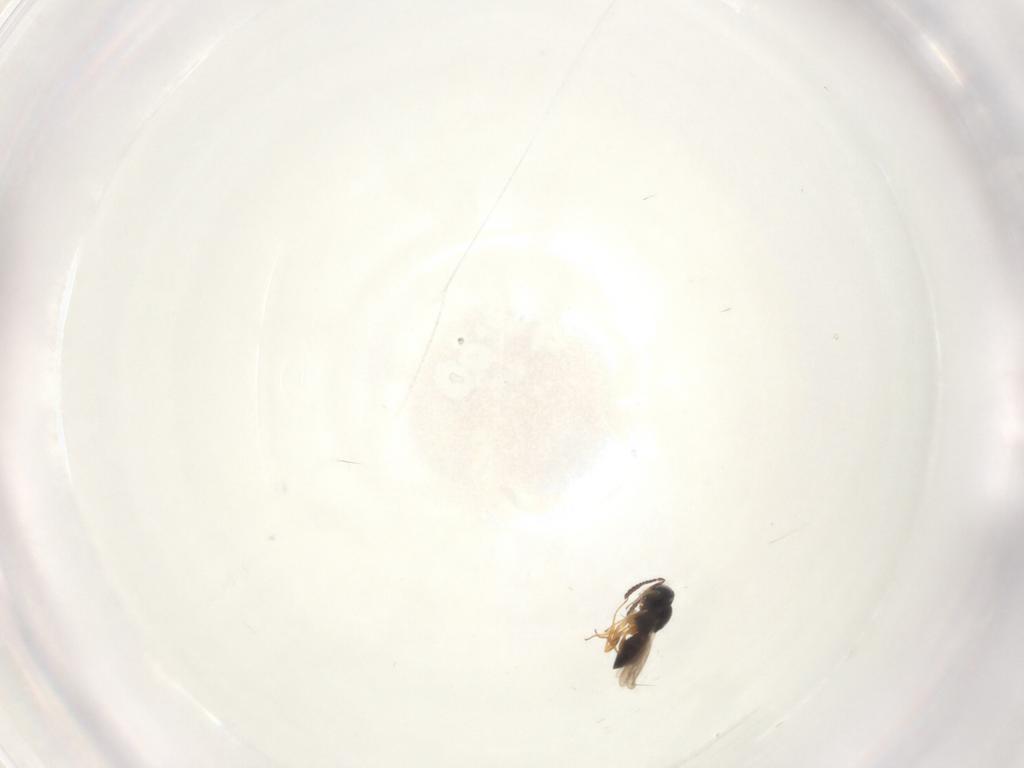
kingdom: Animalia
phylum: Arthropoda
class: Insecta
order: Hymenoptera
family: Scelionidae
